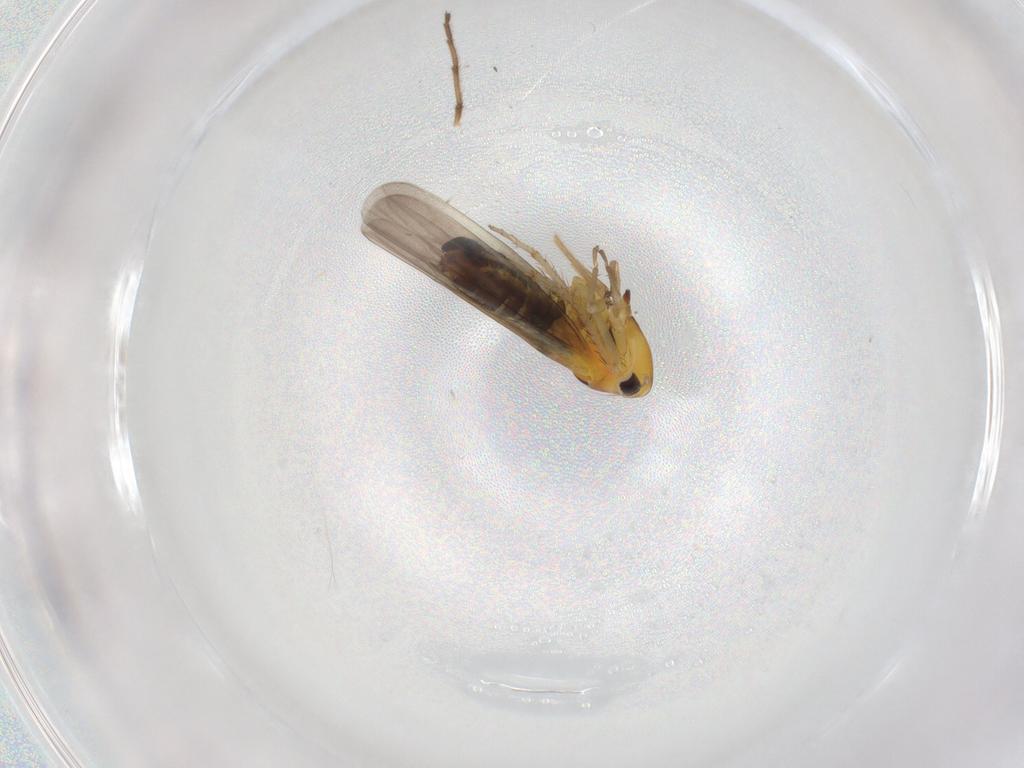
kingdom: Animalia
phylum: Arthropoda
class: Insecta
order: Hemiptera
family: Cicadellidae
